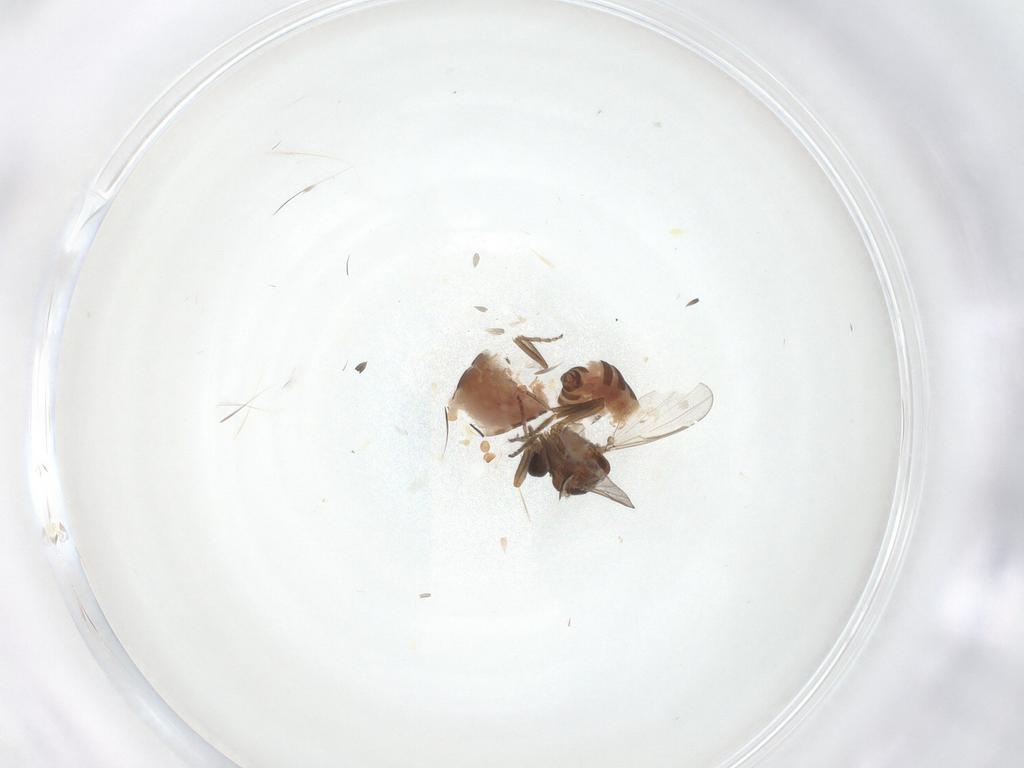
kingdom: Animalia
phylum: Arthropoda
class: Insecta
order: Diptera
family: Ceratopogonidae
